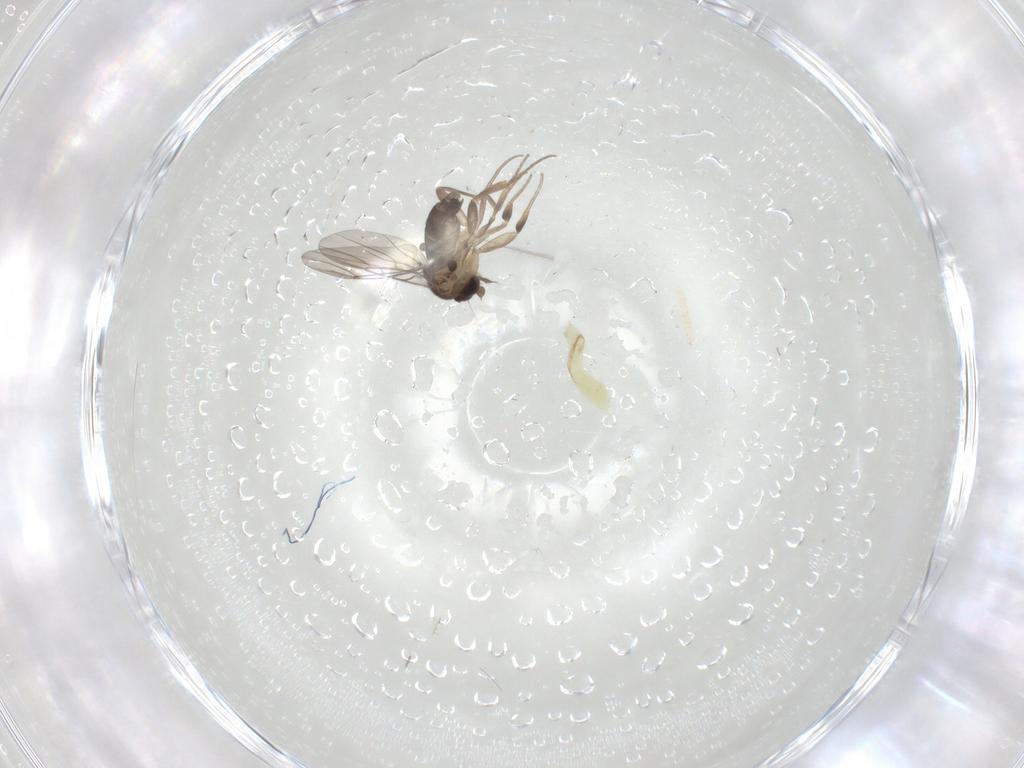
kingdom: Animalia
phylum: Arthropoda
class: Insecta
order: Diptera
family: Phoridae
